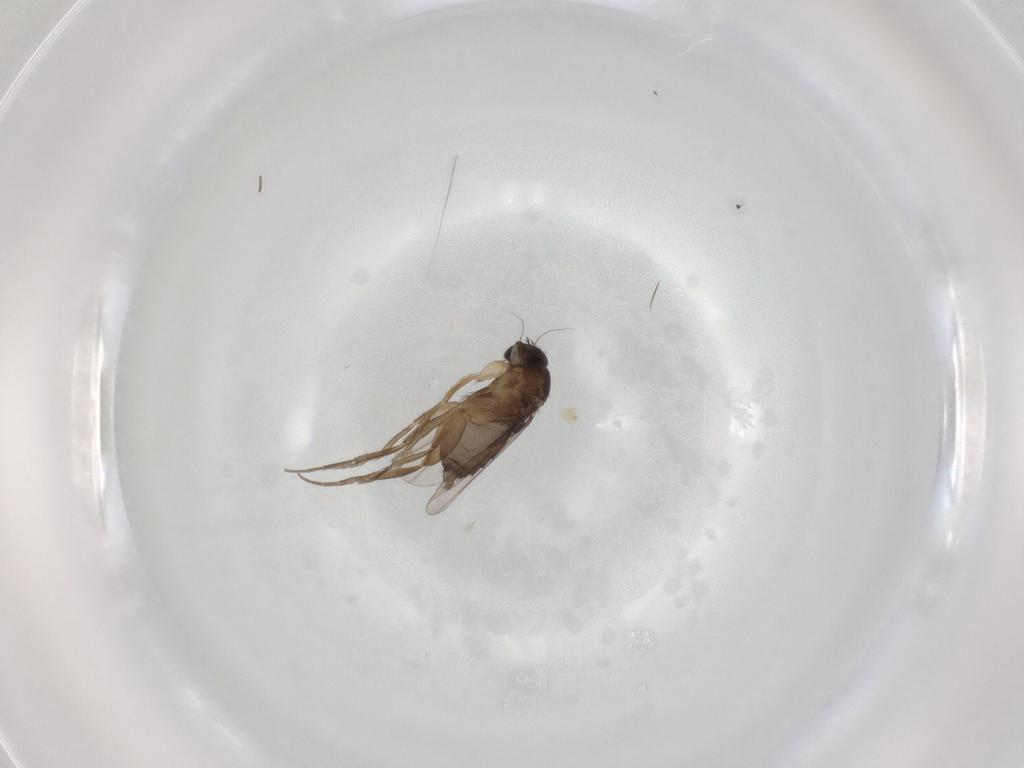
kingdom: Animalia
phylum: Arthropoda
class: Insecta
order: Diptera
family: Phoridae
